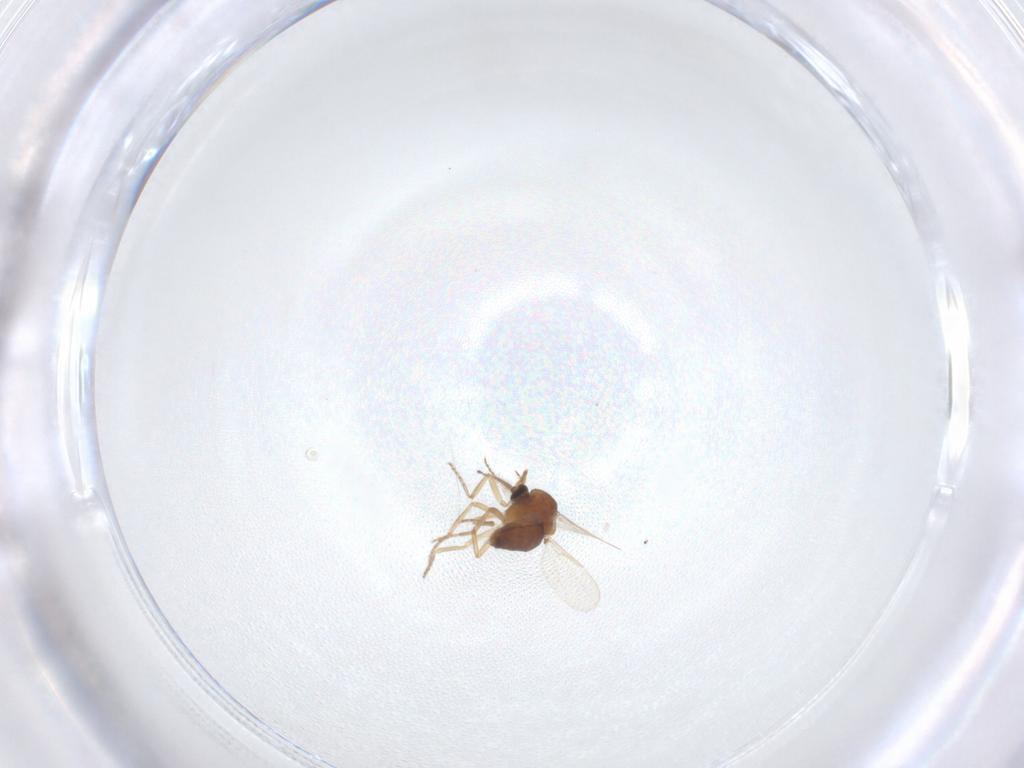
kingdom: Animalia
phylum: Arthropoda
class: Insecta
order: Diptera
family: Ceratopogonidae
